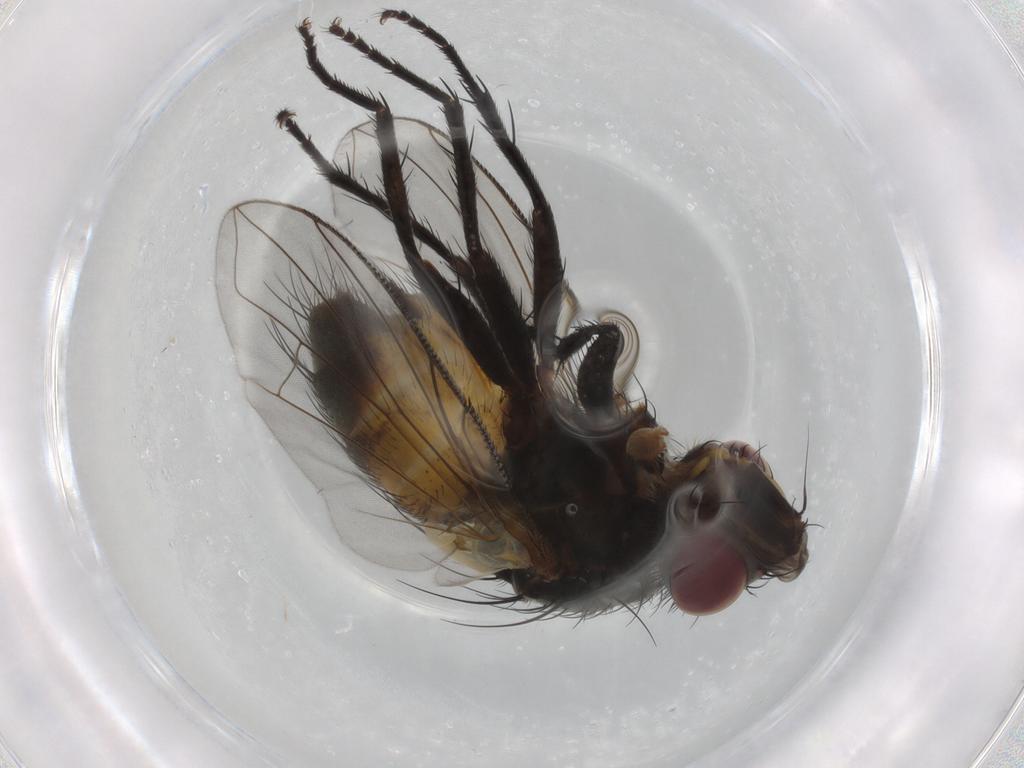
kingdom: Animalia
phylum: Arthropoda
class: Insecta
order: Diptera
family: Tachinidae
